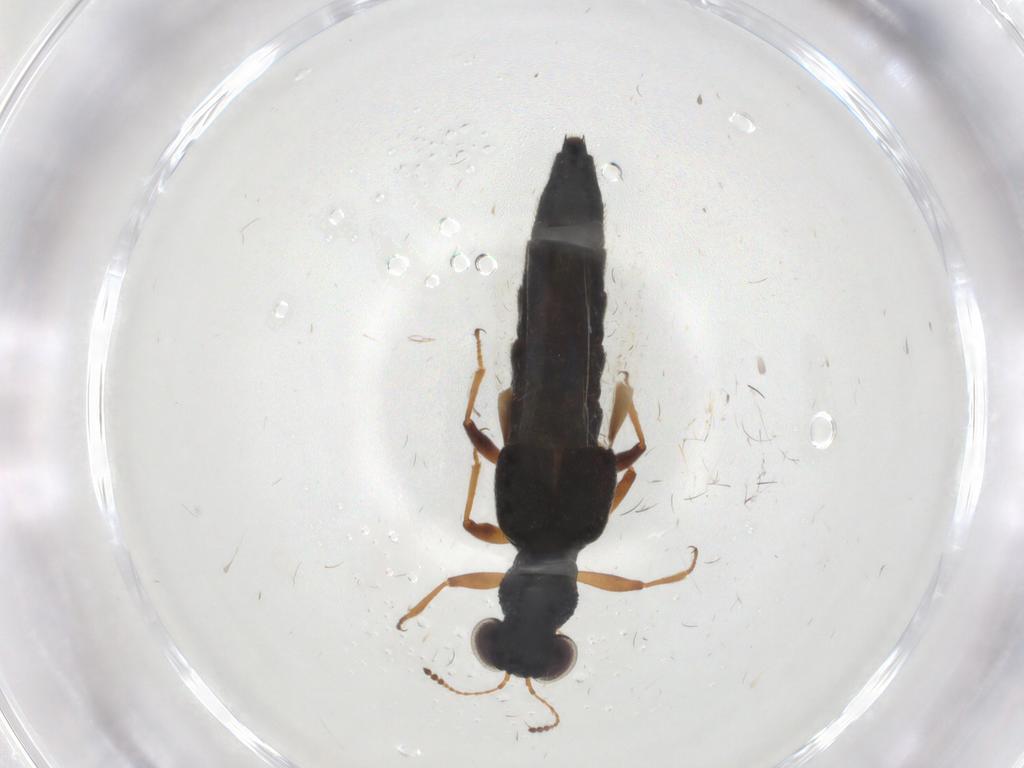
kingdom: Animalia
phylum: Arthropoda
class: Insecta
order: Coleoptera
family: Staphylinidae
